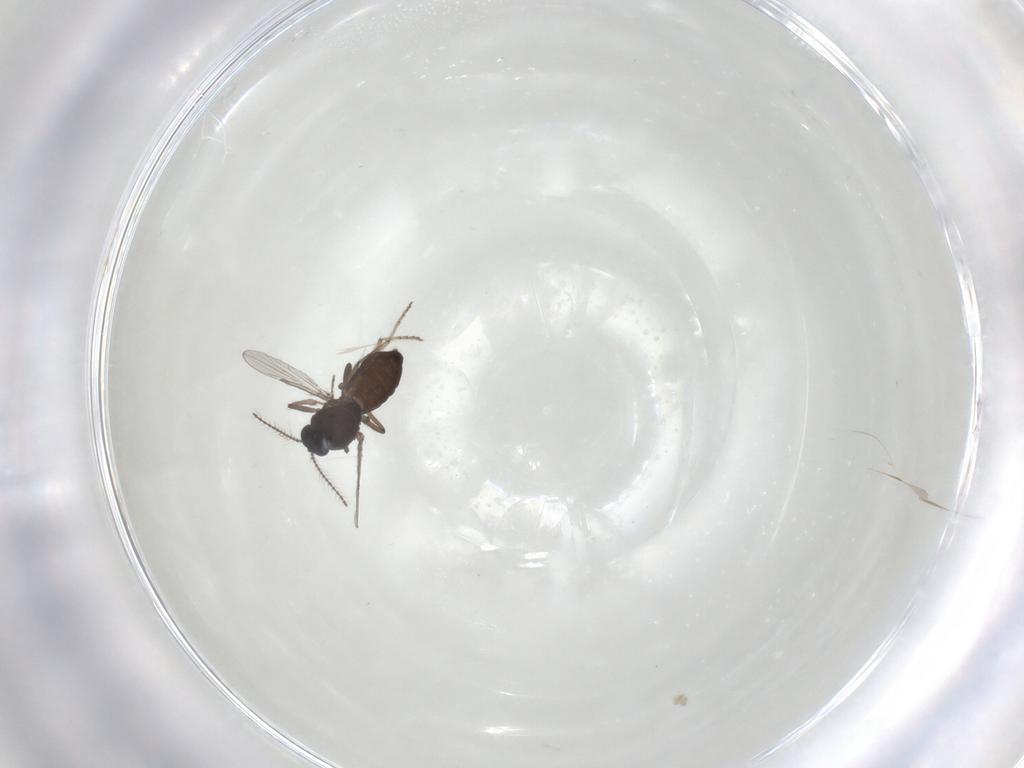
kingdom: Animalia
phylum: Arthropoda
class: Insecta
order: Diptera
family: Ceratopogonidae
